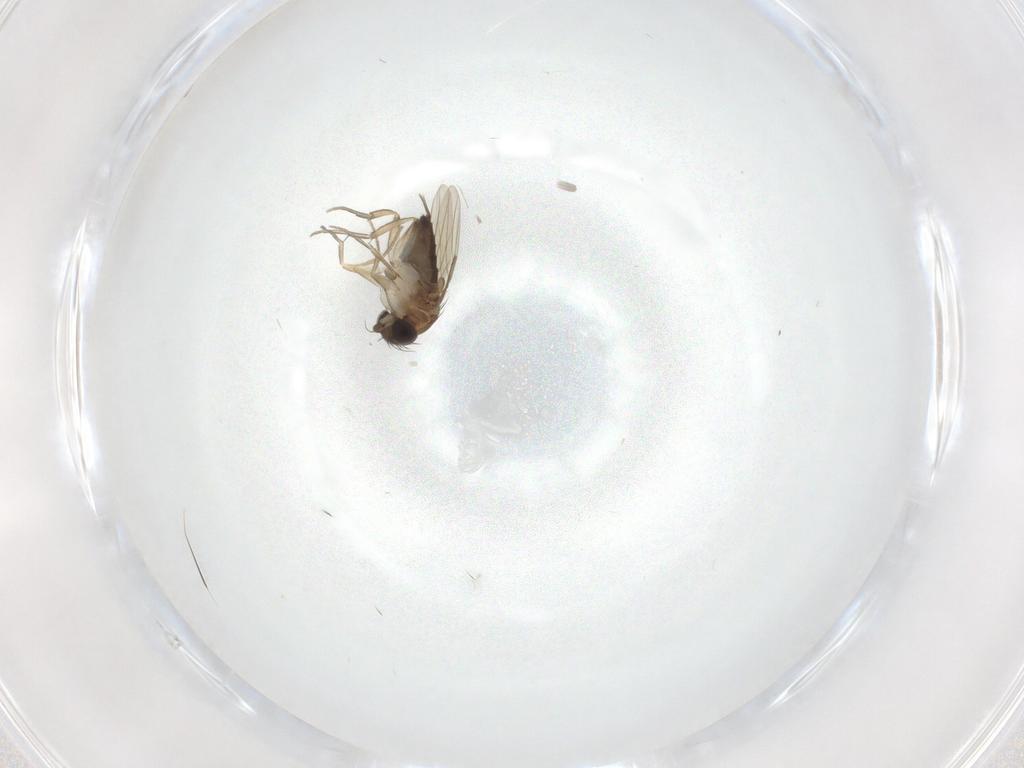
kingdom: Animalia
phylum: Arthropoda
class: Insecta
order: Diptera
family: Phoridae
